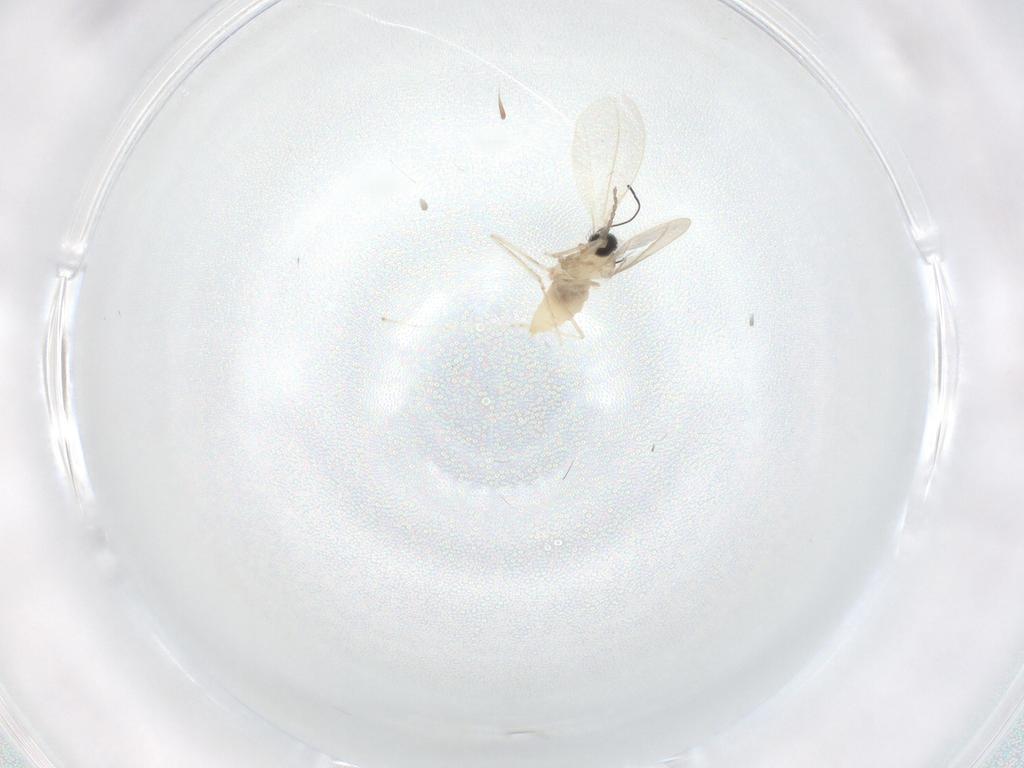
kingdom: Animalia
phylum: Arthropoda
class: Insecta
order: Diptera
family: Cecidomyiidae
